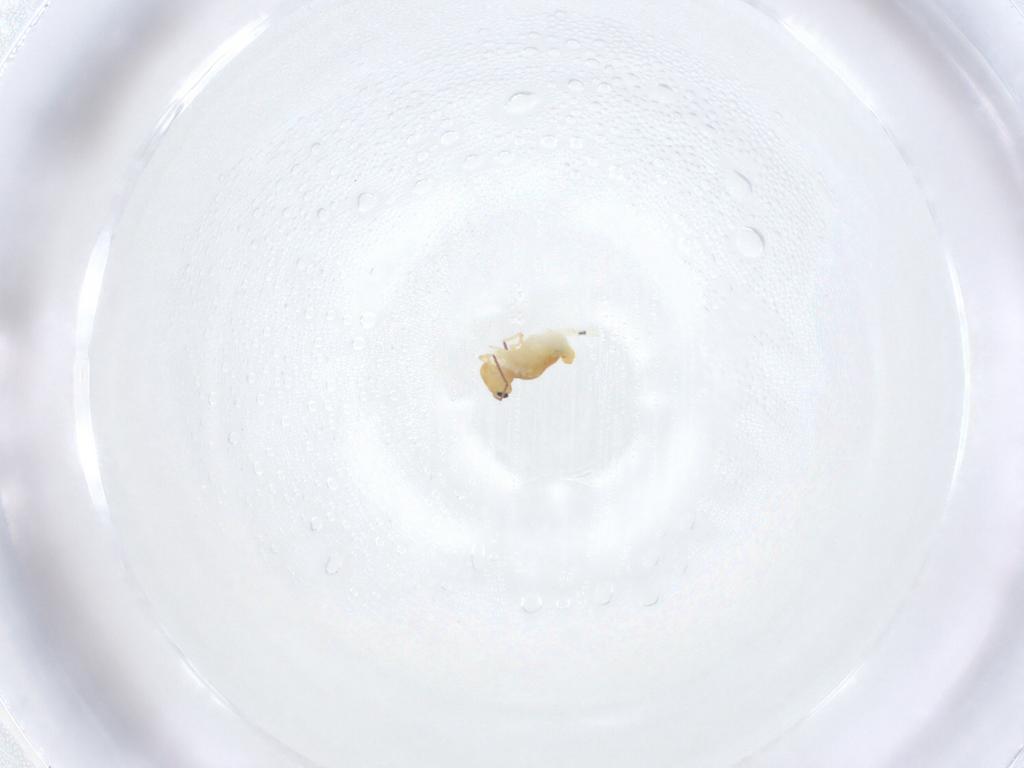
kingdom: Animalia
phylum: Arthropoda
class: Collembola
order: Symphypleona
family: Bourletiellidae
